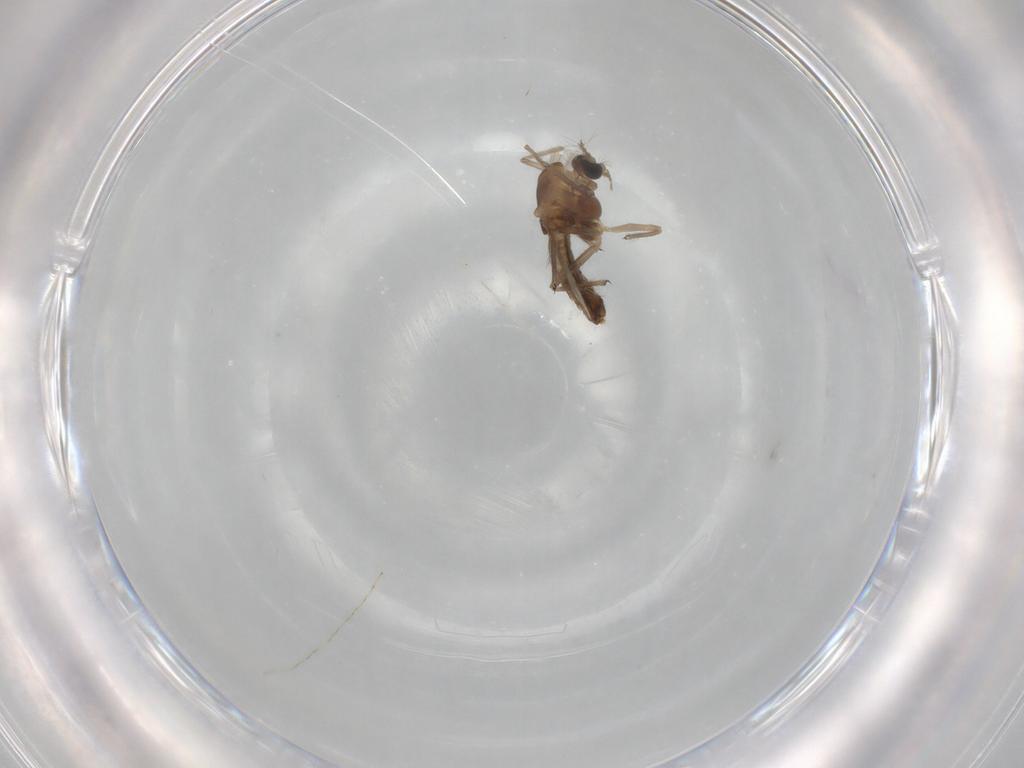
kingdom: Animalia
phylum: Arthropoda
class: Insecta
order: Diptera
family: Chironomidae
